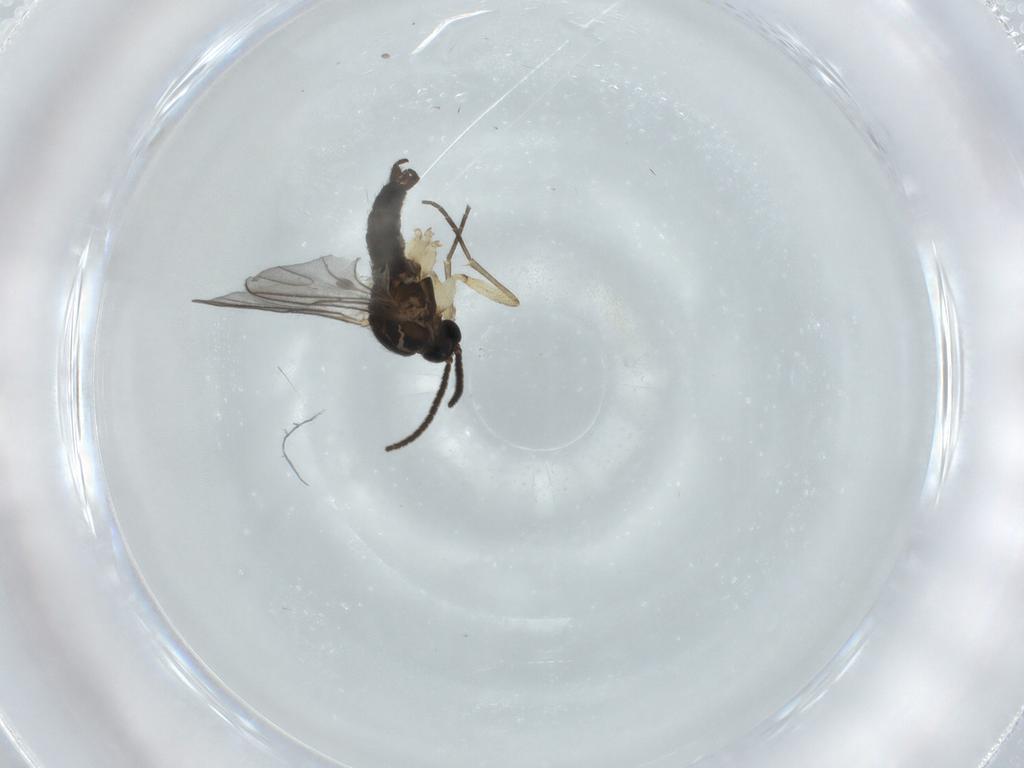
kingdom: Animalia
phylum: Arthropoda
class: Insecta
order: Diptera
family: Sciaridae
